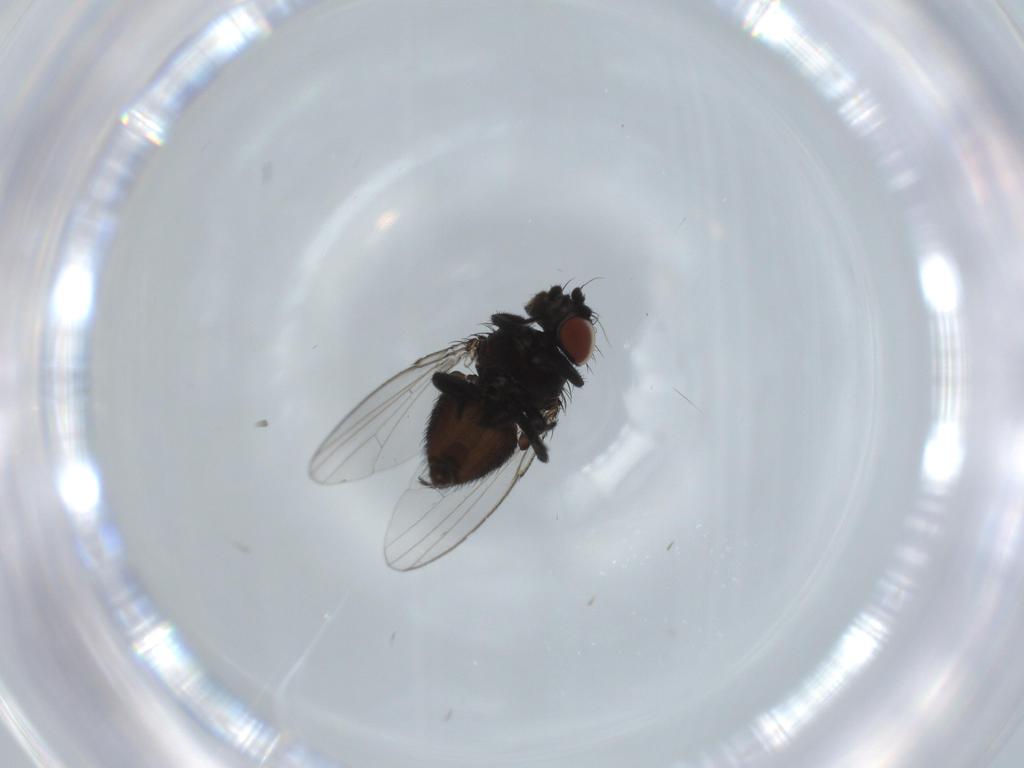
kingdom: Animalia
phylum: Arthropoda
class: Insecta
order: Diptera
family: Milichiidae
